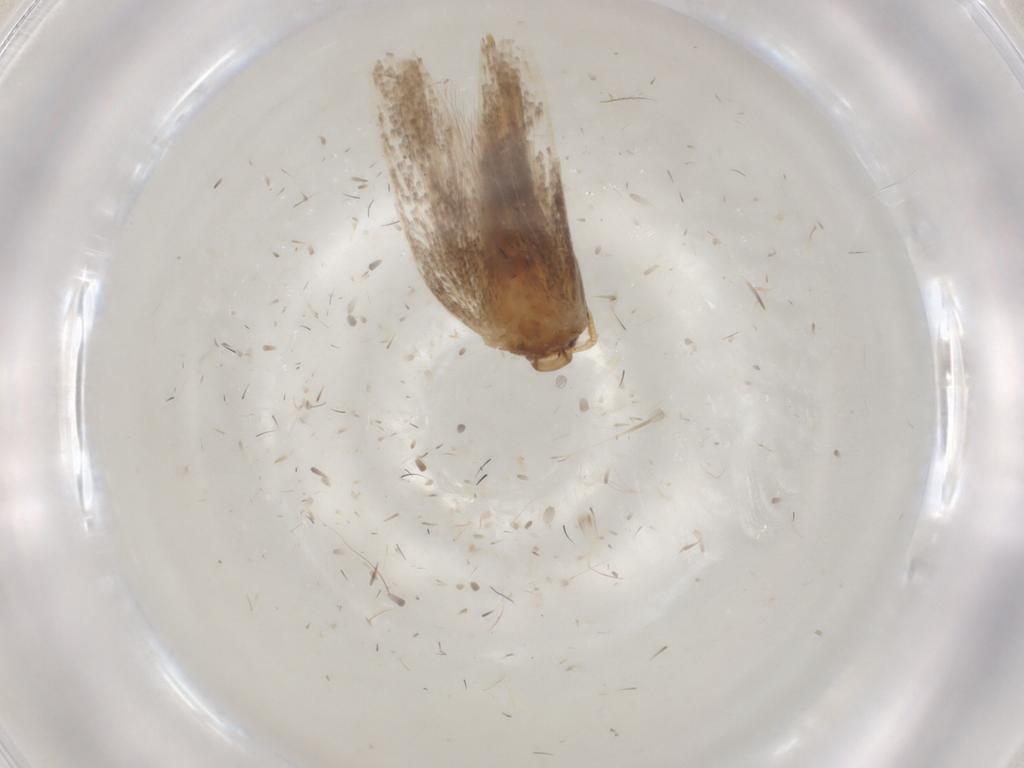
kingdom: Animalia
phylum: Arthropoda
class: Insecta
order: Lepidoptera
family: Gelechiidae
